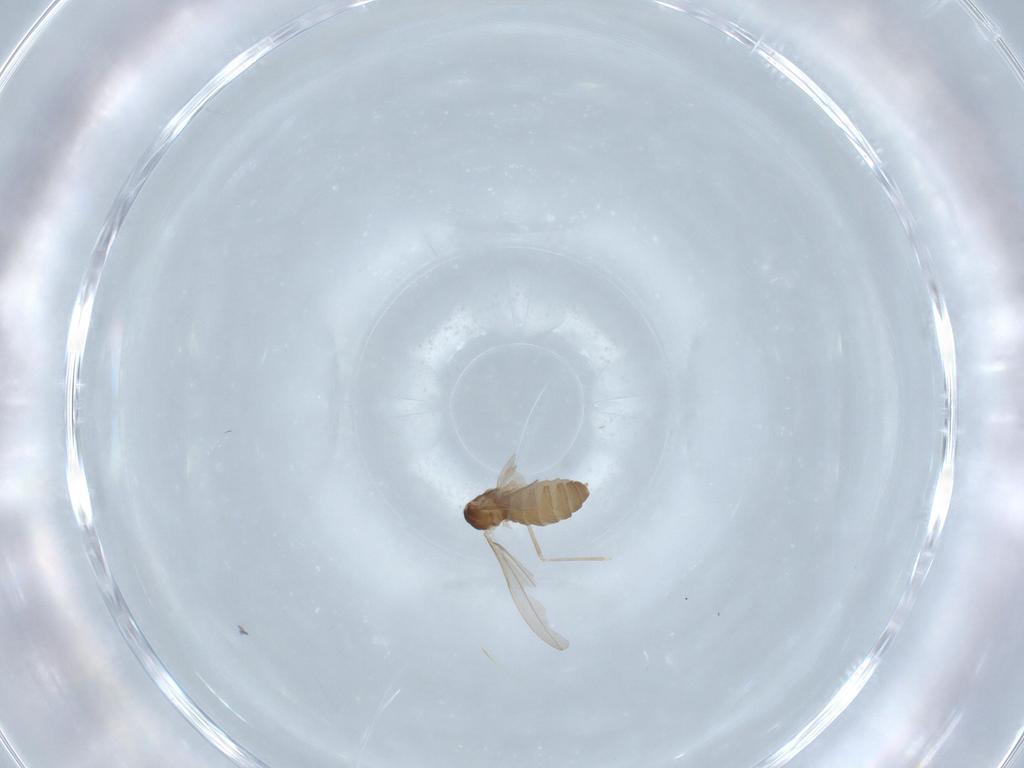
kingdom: Animalia
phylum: Arthropoda
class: Insecta
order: Diptera
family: Cecidomyiidae
